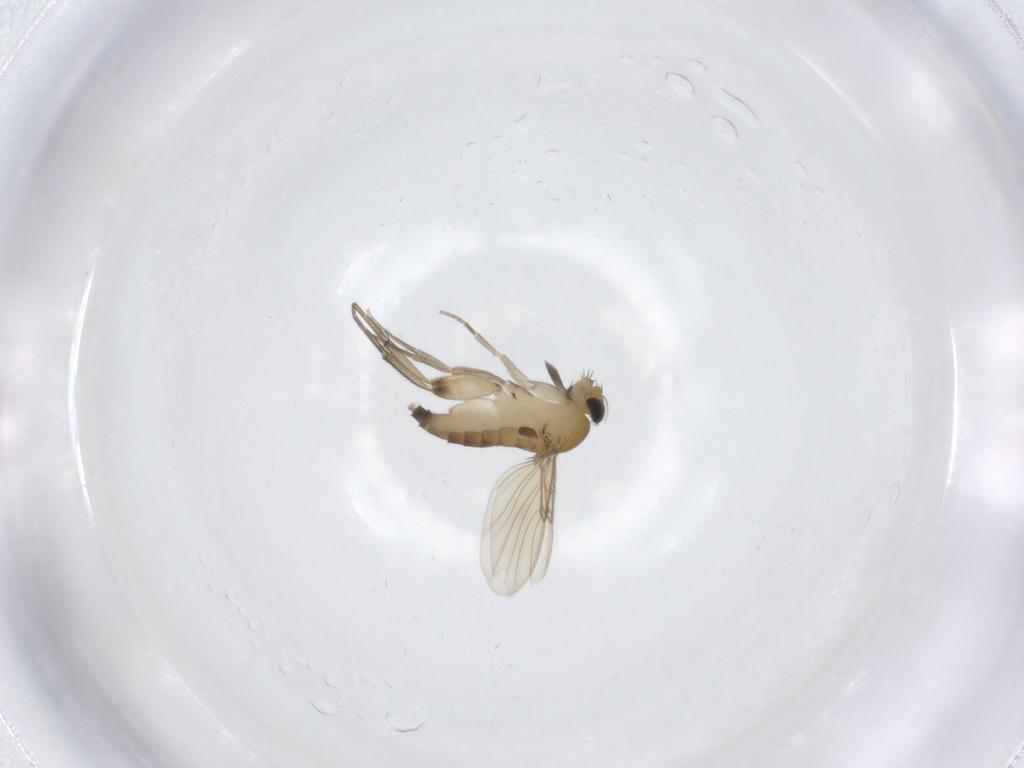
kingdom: Animalia
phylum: Arthropoda
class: Insecta
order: Diptera
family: Phoridae
